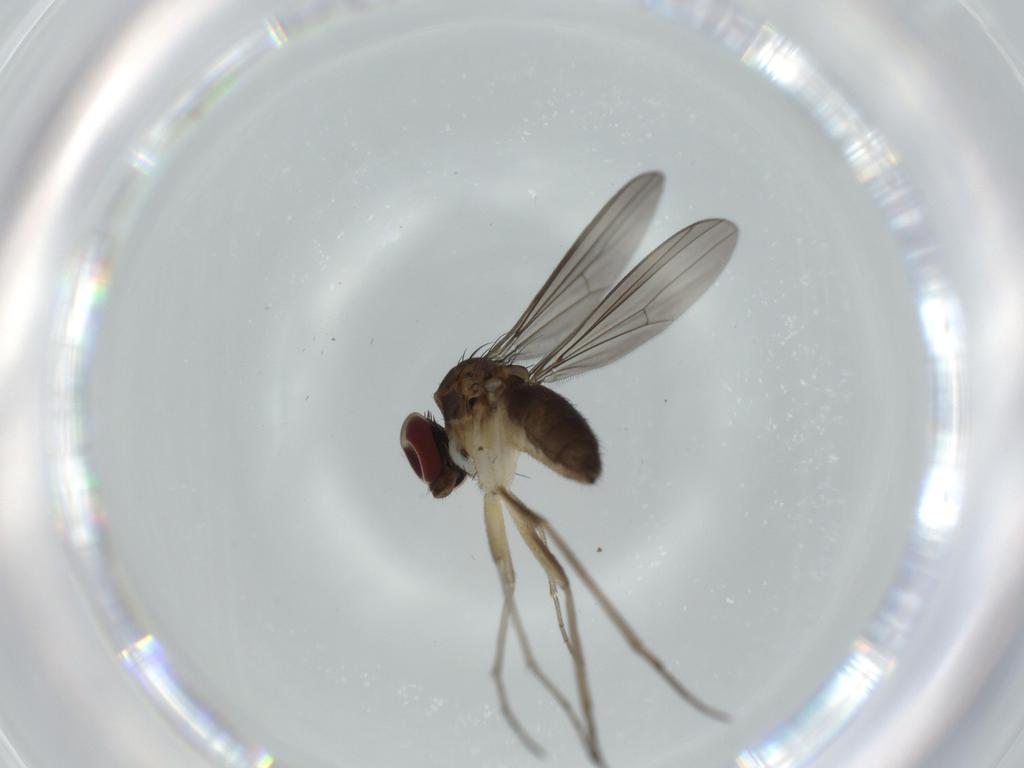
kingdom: Animalia
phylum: Arthropoda
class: Insecta
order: Diptera
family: Dolichopodidae
